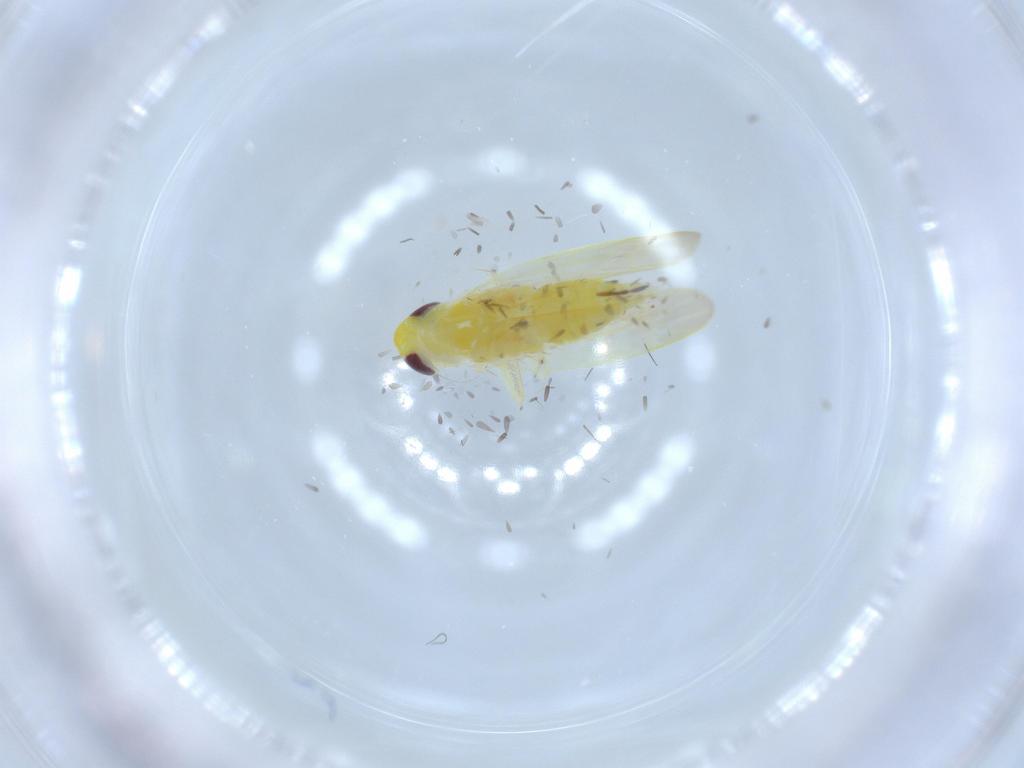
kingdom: Animalia
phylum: Arthropoda
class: Insecta
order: Hemiptera
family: Cicadellidae
